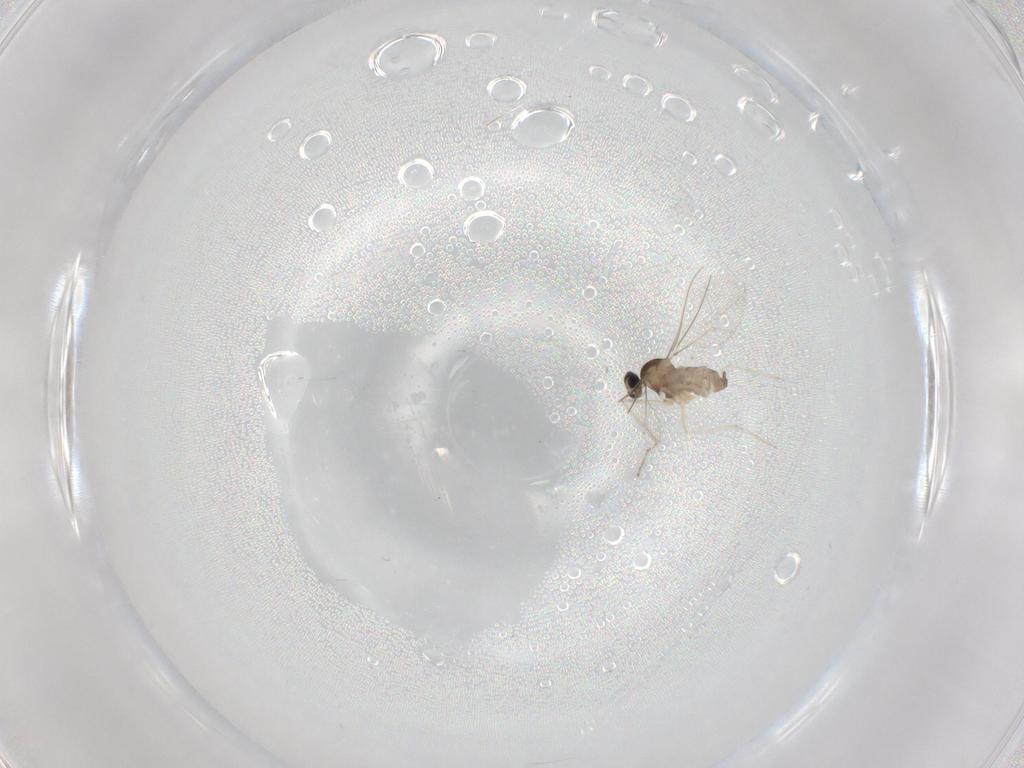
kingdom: Animalia
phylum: Arthropoda
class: Insecta
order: Diptera
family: Cecidomyiidae
